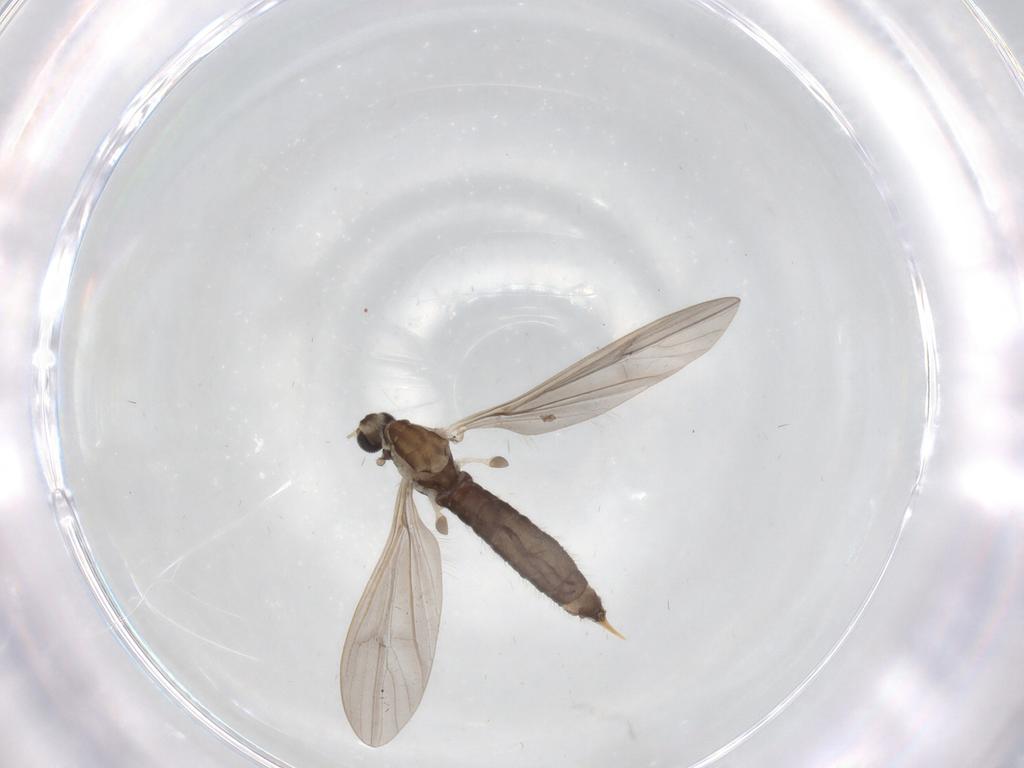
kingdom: Animalia
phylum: Arthropoda
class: Insecta
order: Diptera
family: Limoniidae
